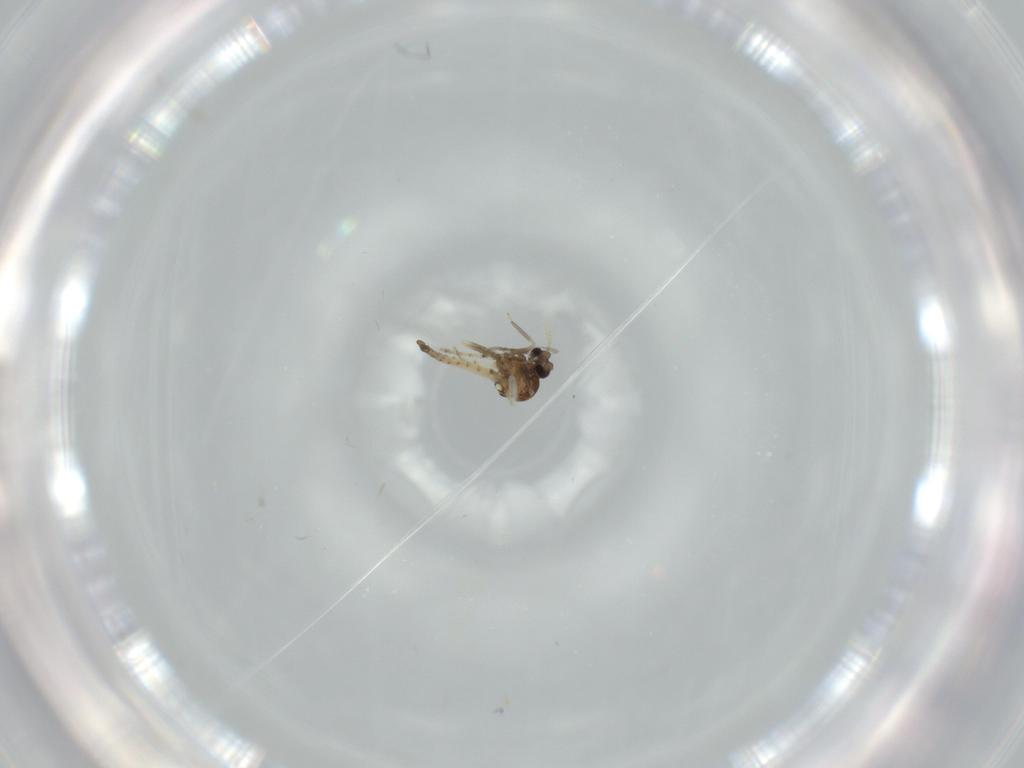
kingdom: Animalia
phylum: Arthropoda
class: Insecta
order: Diptera
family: Ceratopogonidae
